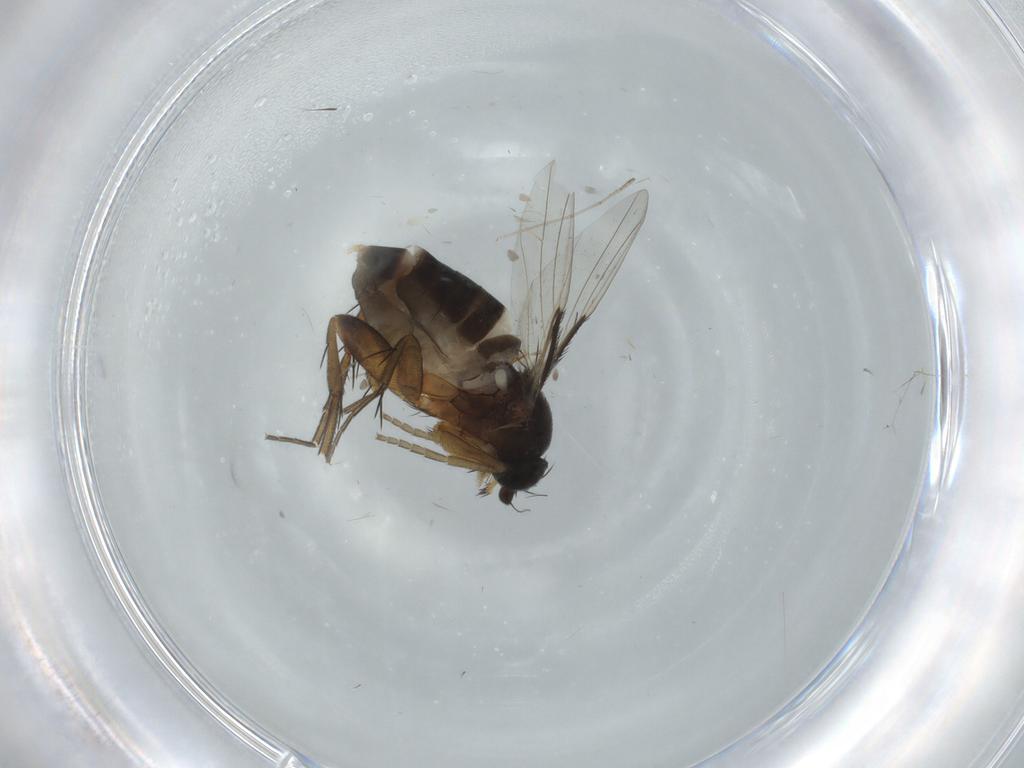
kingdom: Animalia
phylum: Arthropoda
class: Insecta
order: Diptera
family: Phoridae
